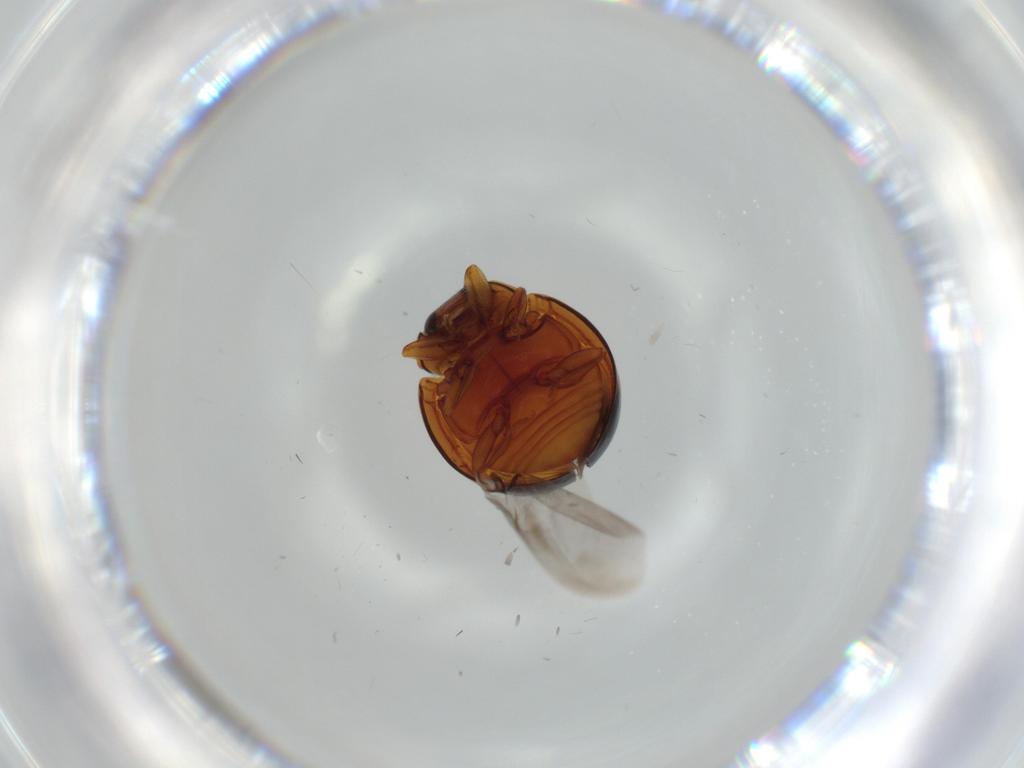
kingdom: Animalia
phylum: Arthropoda
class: Insecta
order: Coleoptera
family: Coccinellidae
